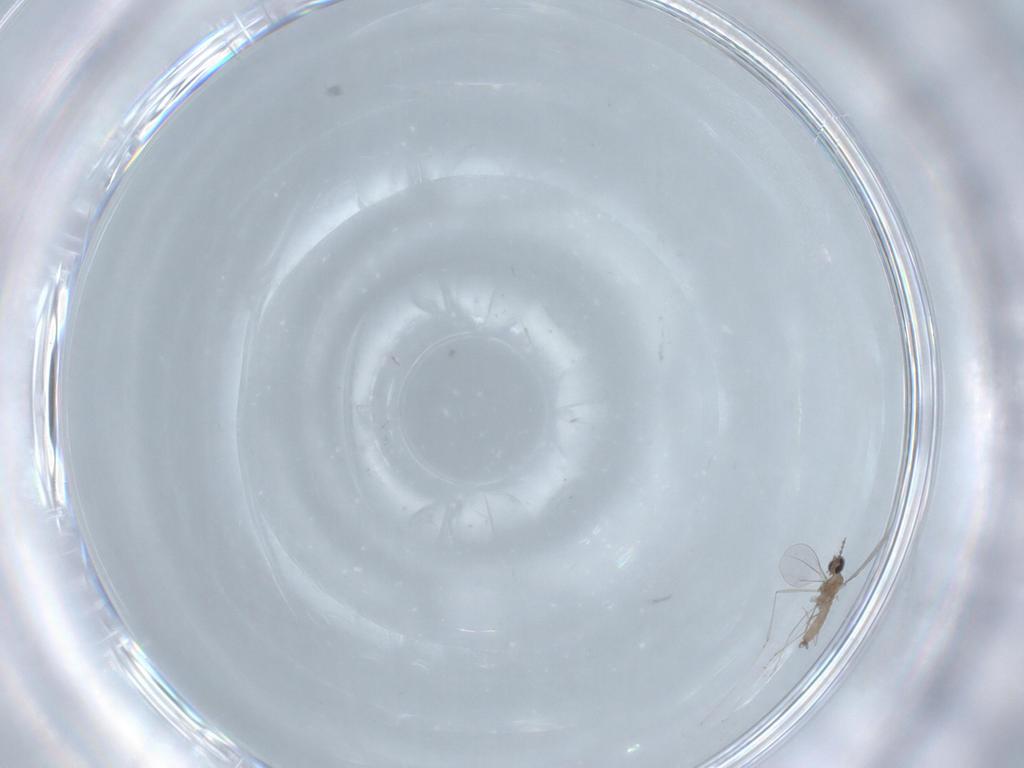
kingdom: Animalia
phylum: Arthropoda
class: Insecta
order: Diptera
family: Cecidomyiidae
